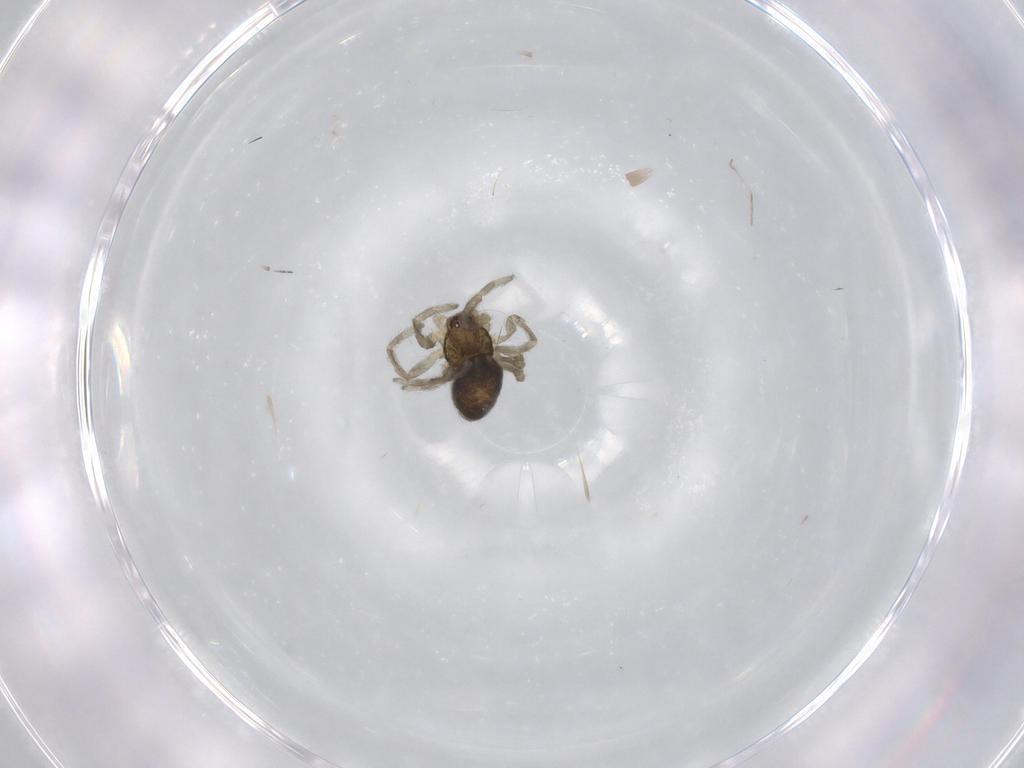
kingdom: Animalia
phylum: Arthropoda
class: Arachnida
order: Araneae
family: Dictynidae
